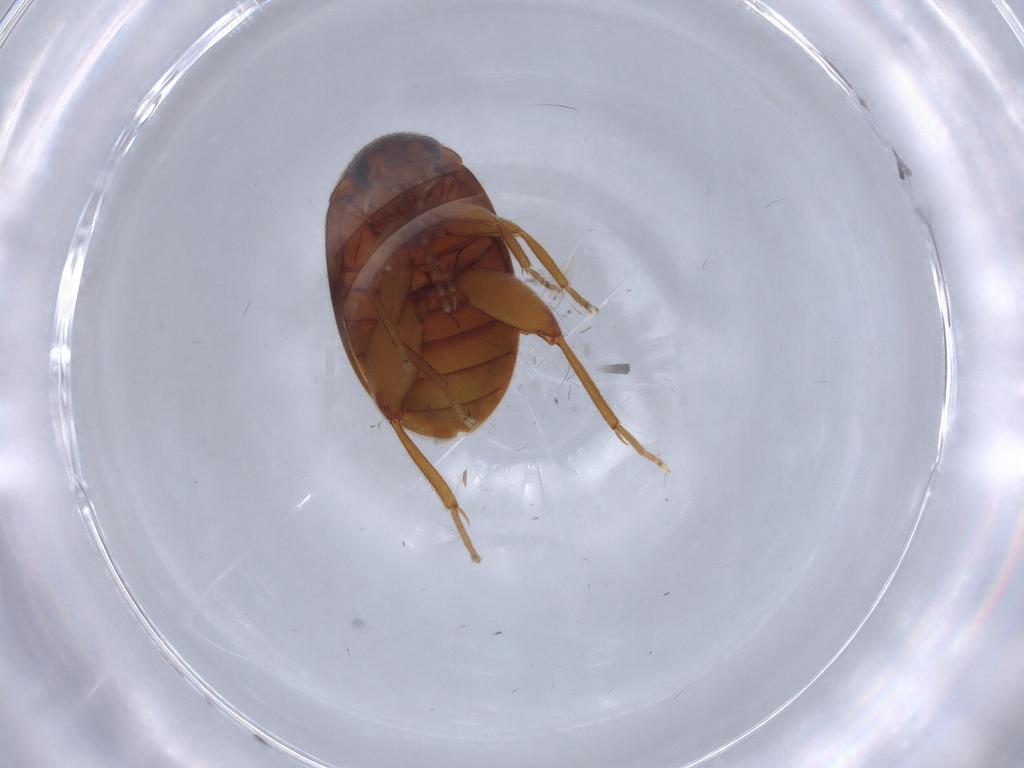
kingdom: Animalia
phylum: Arthropoda
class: Insecta
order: Coleoptera
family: Scirtidae
